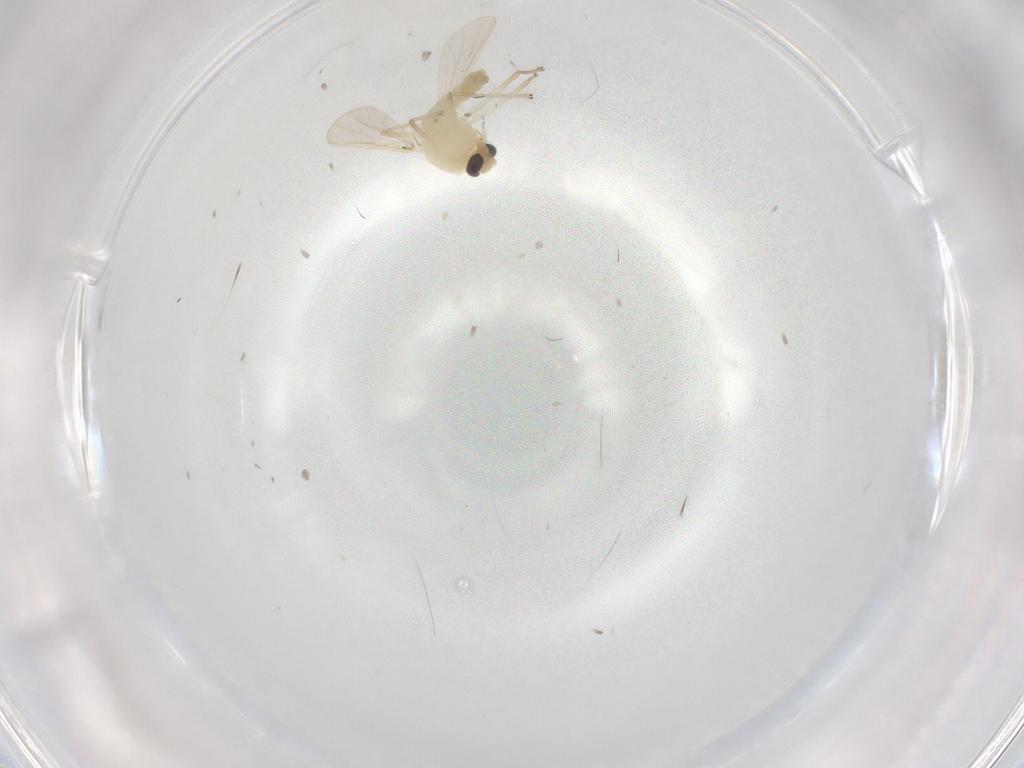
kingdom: Animalia
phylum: Arthropoda
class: Insecta
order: Diptera
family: Chironomidae
